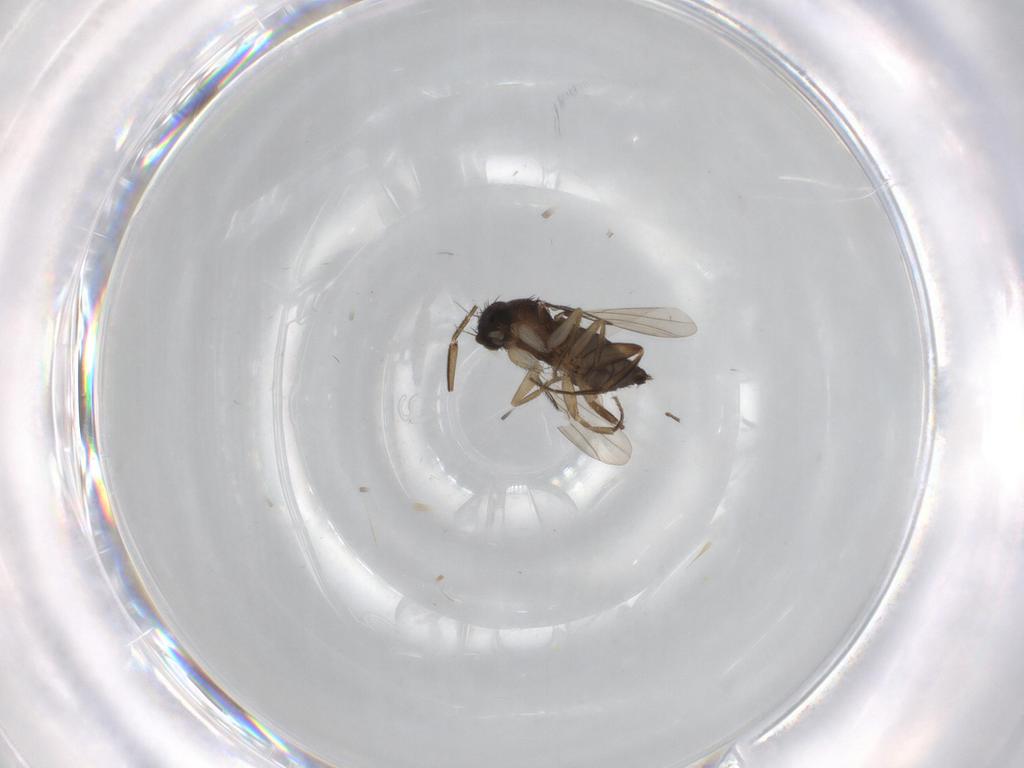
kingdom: Animalia
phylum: Arthropoda
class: Insecta
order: Diptera
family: Phoridae
